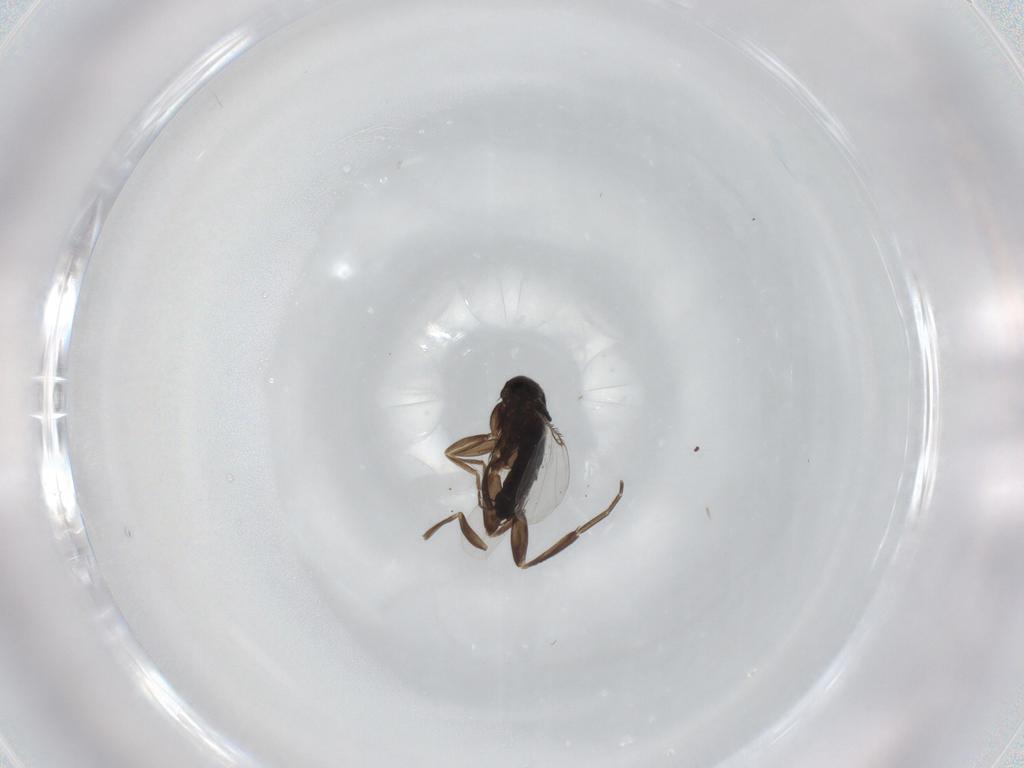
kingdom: Animalia
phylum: Arthropoda
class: Insecta
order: Diptera
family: Phoridae
